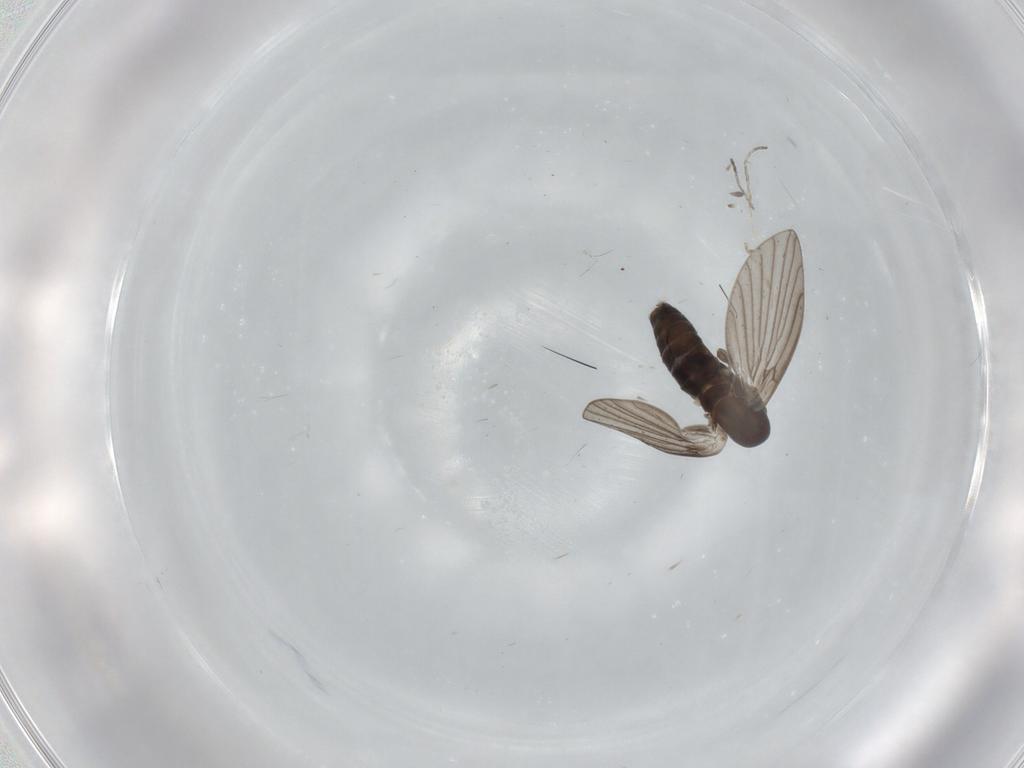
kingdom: Animalia
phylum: Arthropoda
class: Insecta
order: Diptera
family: Cecidomyiidae
